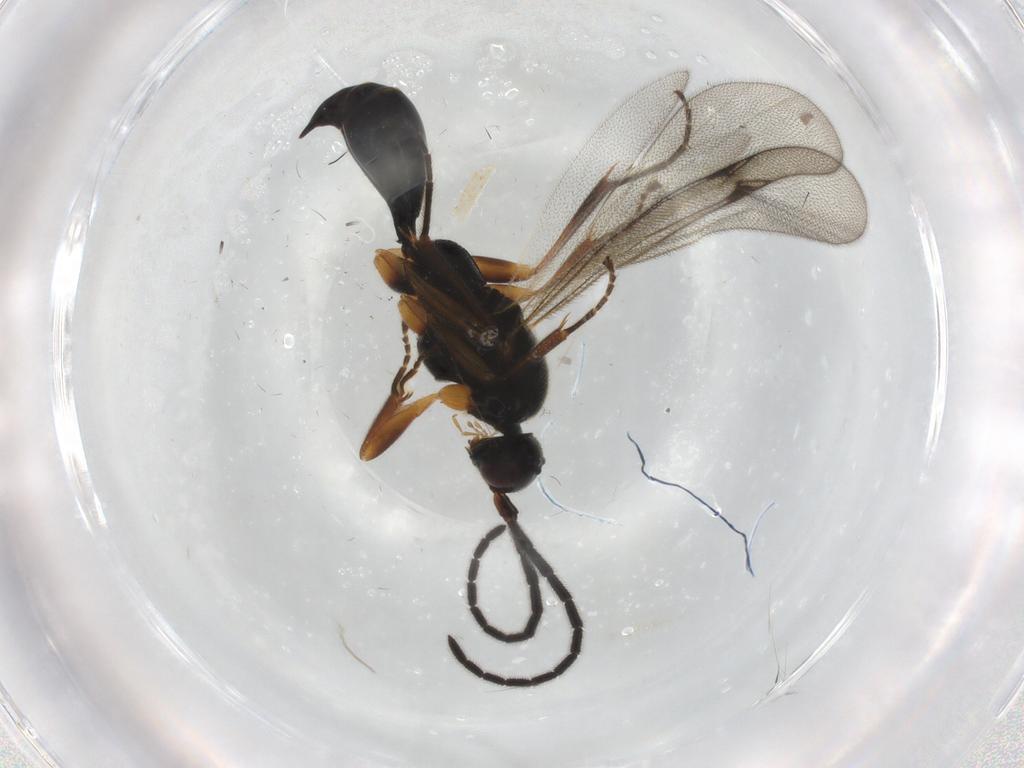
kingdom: Animalia
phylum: Arthropoda
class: Insecta
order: Hymenoptera
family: Proctotrupidae
